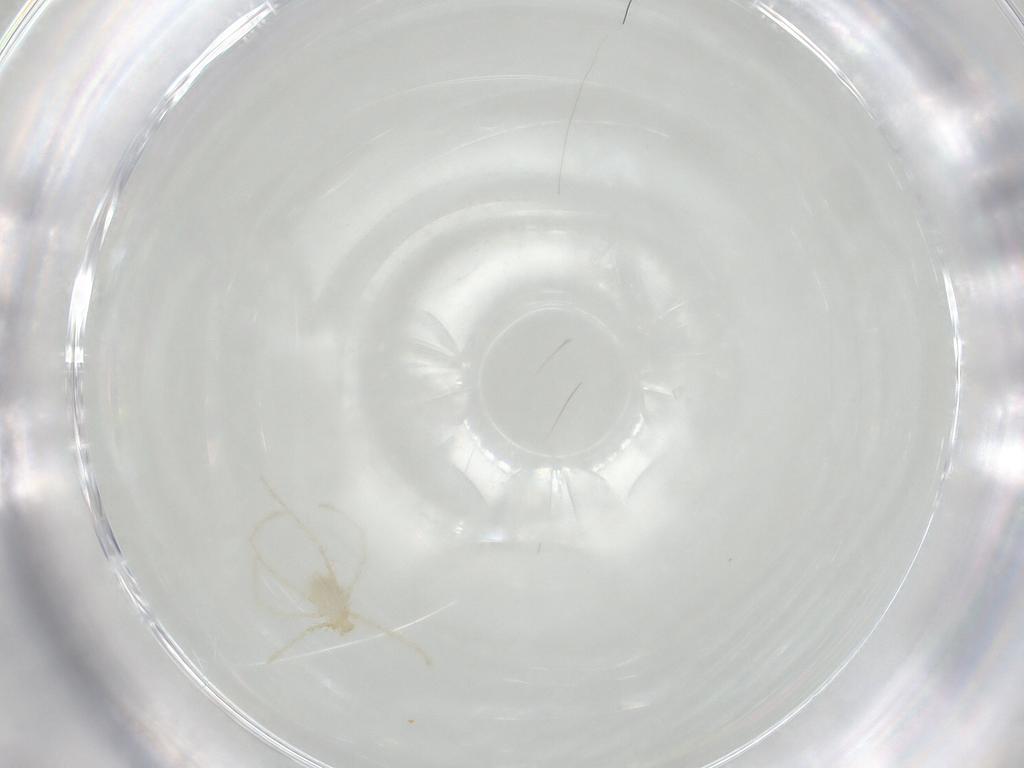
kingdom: Animalia
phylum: Arthropoda
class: Arachnida
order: Trombidiformes
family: Erythraeidae
